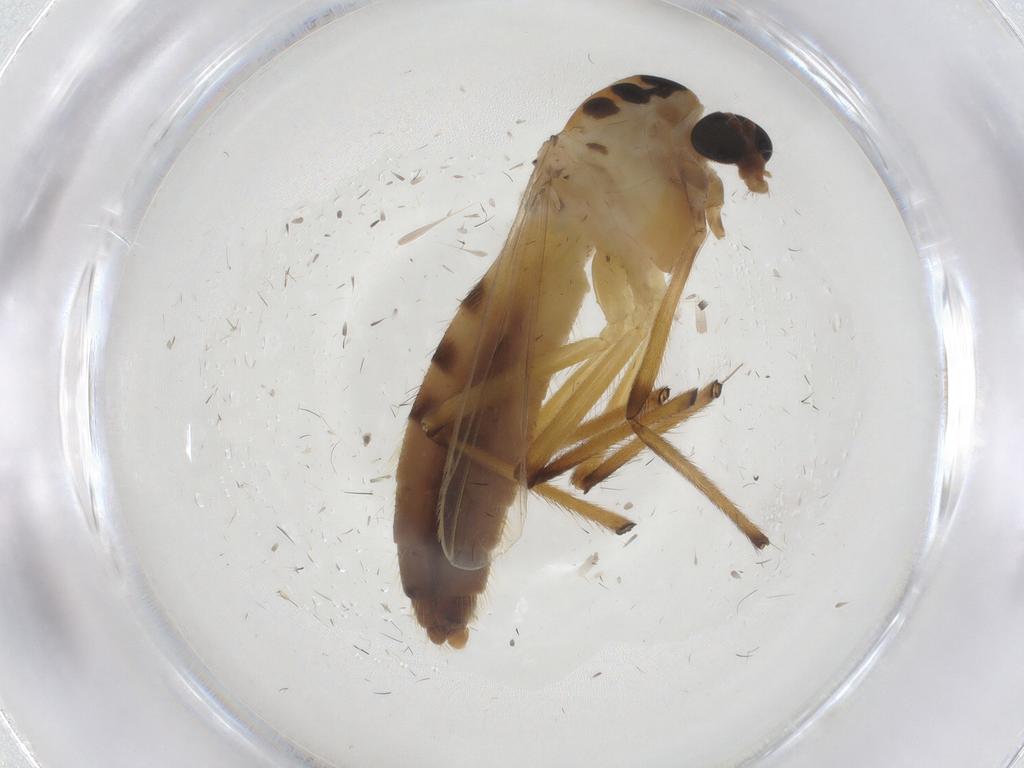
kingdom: Animalia
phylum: Arthropoda
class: Insecta
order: Diptera
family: Chironomidae
